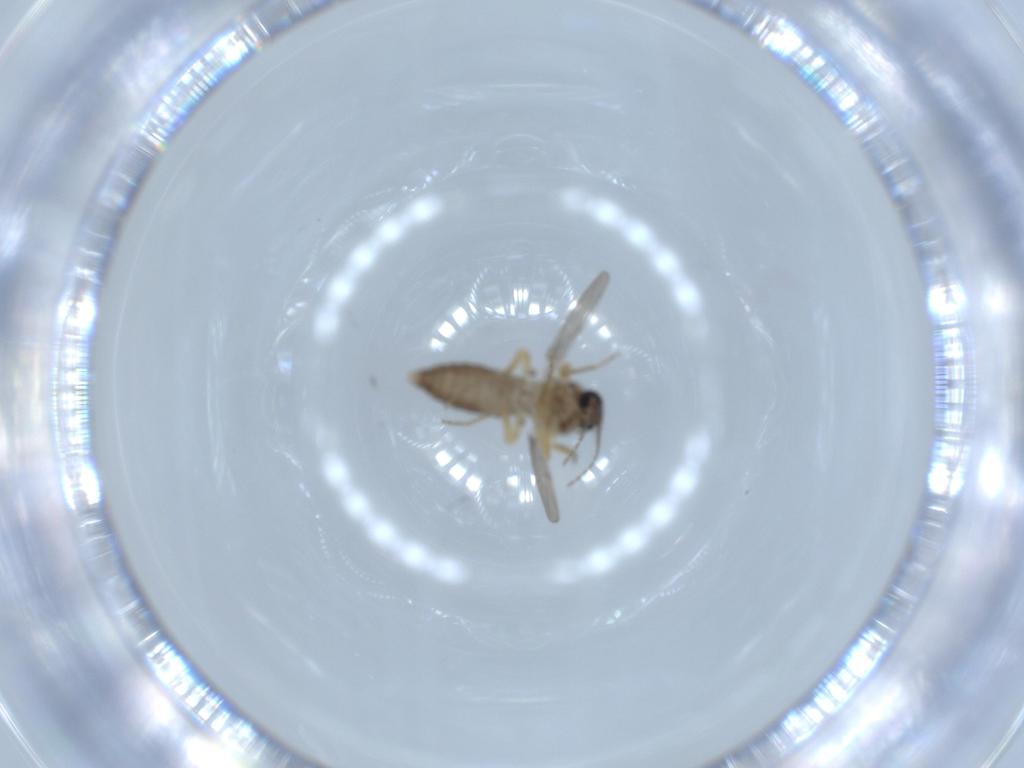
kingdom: Animalia
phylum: Arthropoda
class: Insecta
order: Diptera
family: Ceratopogonidae
